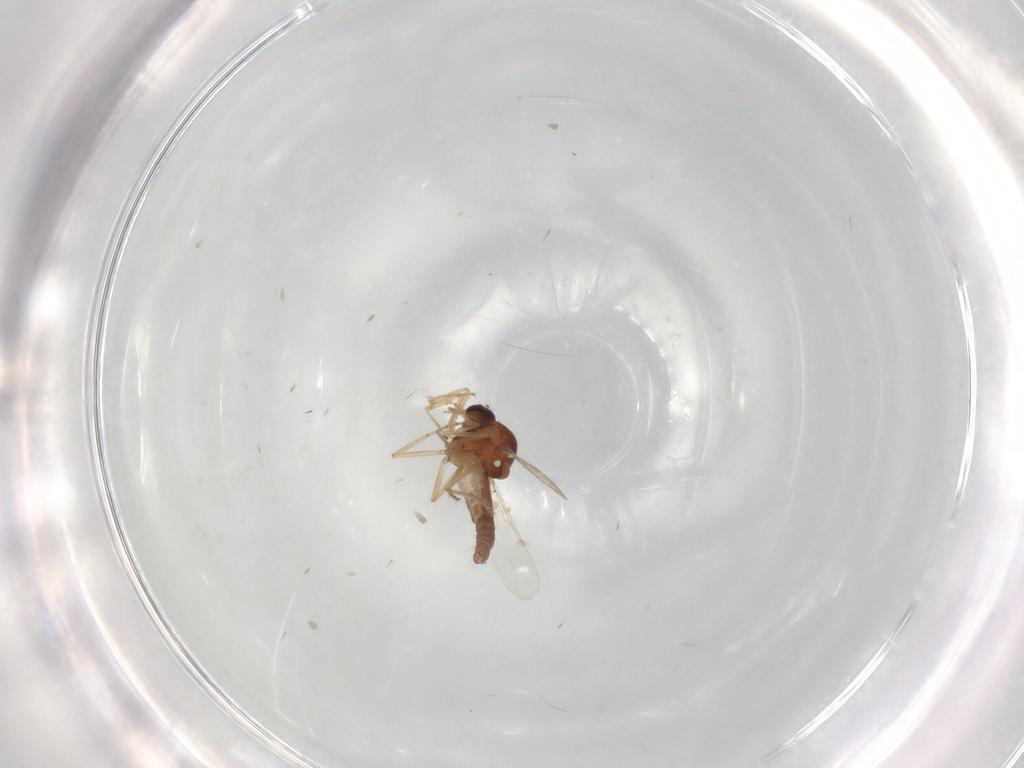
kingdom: Animalia
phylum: Arthropoda
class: Insecta
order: Diptera
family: Ceratopogonidae
